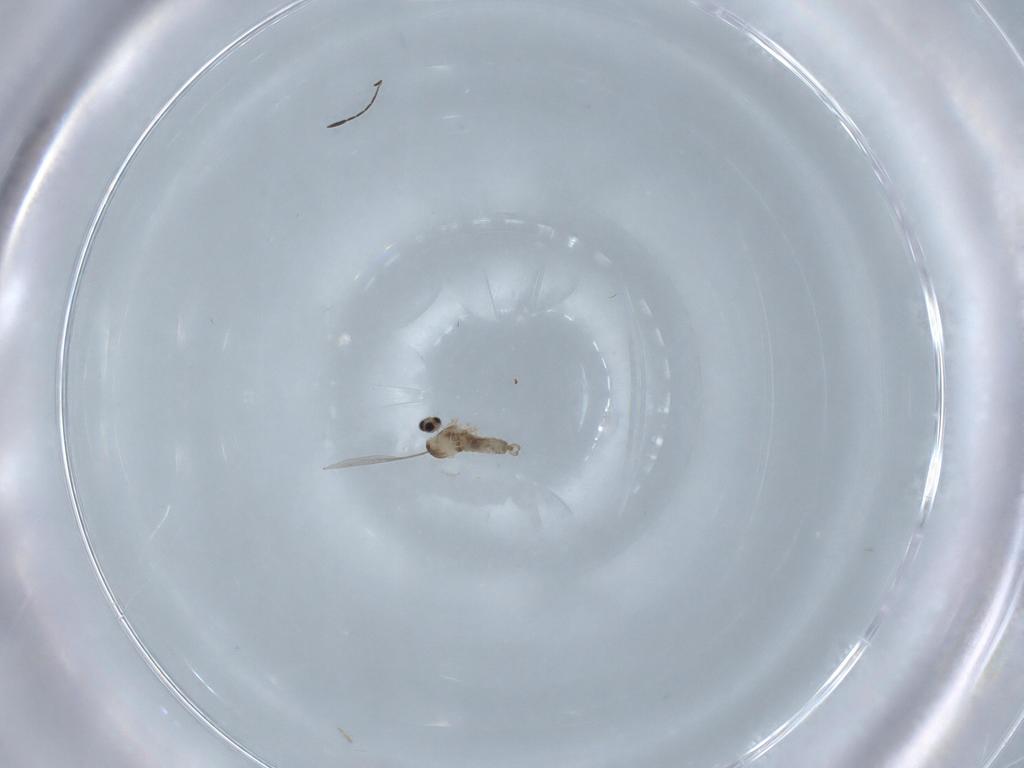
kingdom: Animalia
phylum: Arthropoda
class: Insecta
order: Diptera
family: Cecidomyiidae
